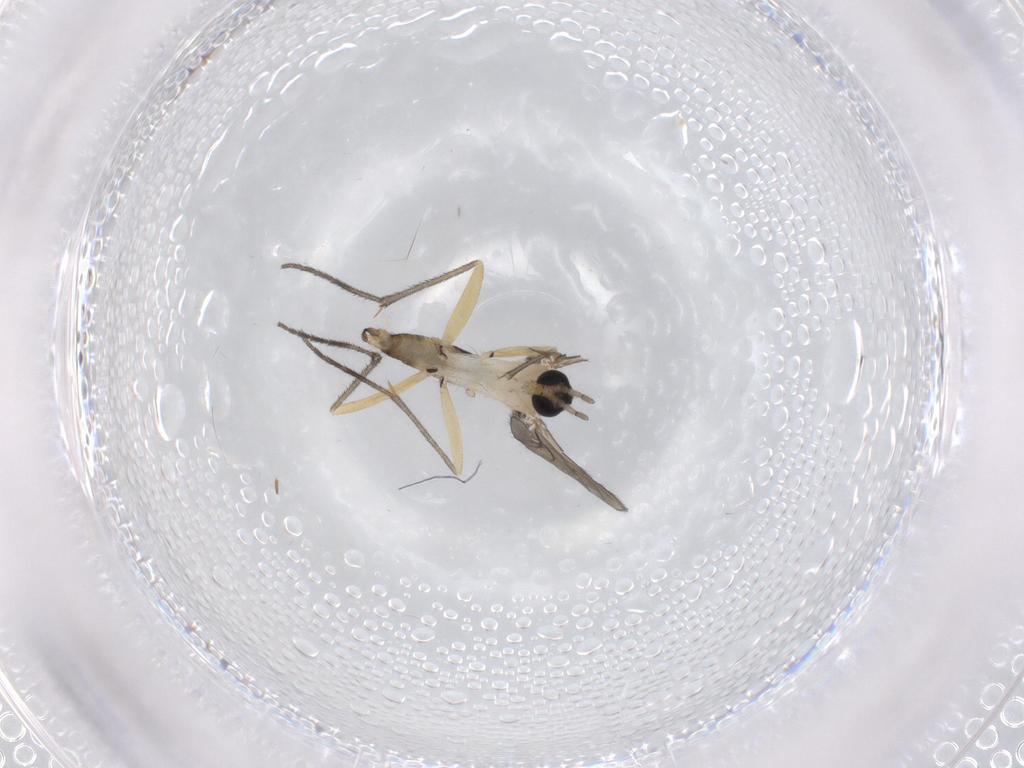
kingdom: Animalia
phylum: Arthropoda
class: Insecta
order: Diptera
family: Sciaridae
